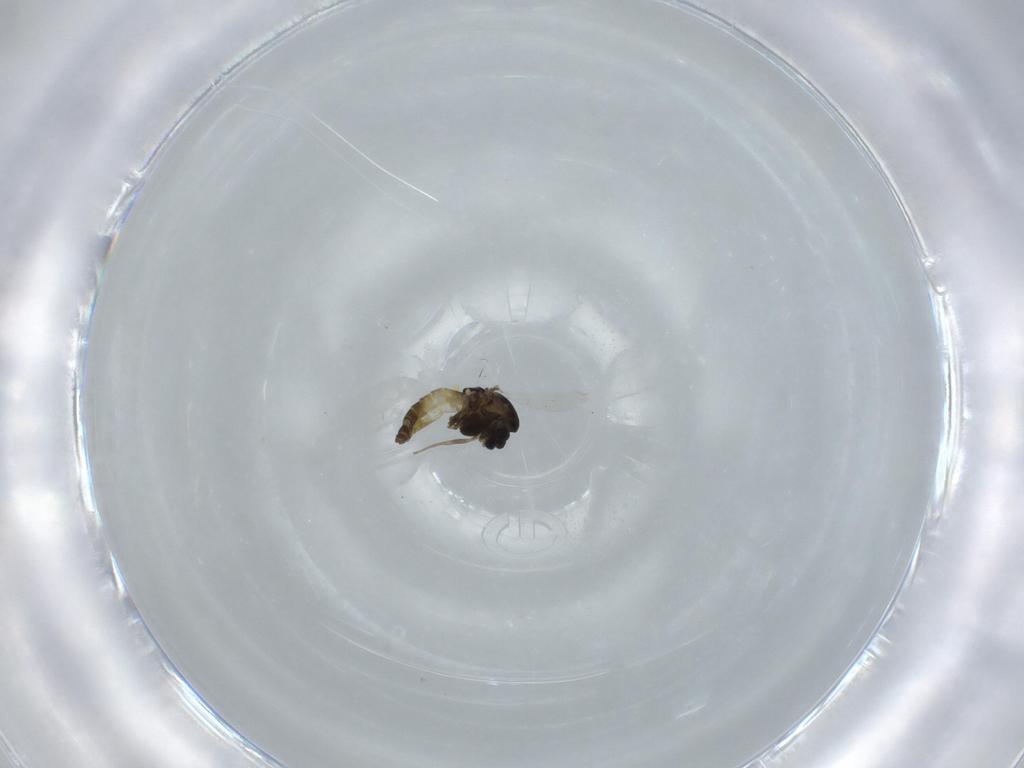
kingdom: Animalia
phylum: Arthropoda
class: Insecta
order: Diptera
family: Chironomidae
